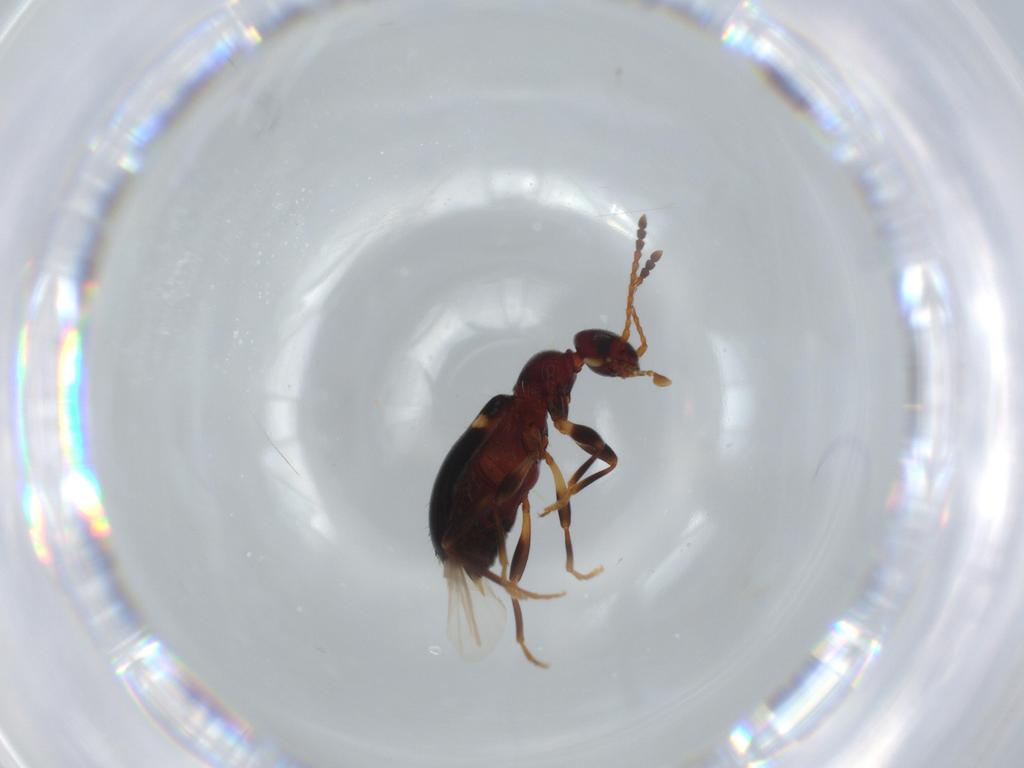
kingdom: Animalia
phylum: Arthropoda
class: Insecta
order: Coleoptera
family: Anthicidae
